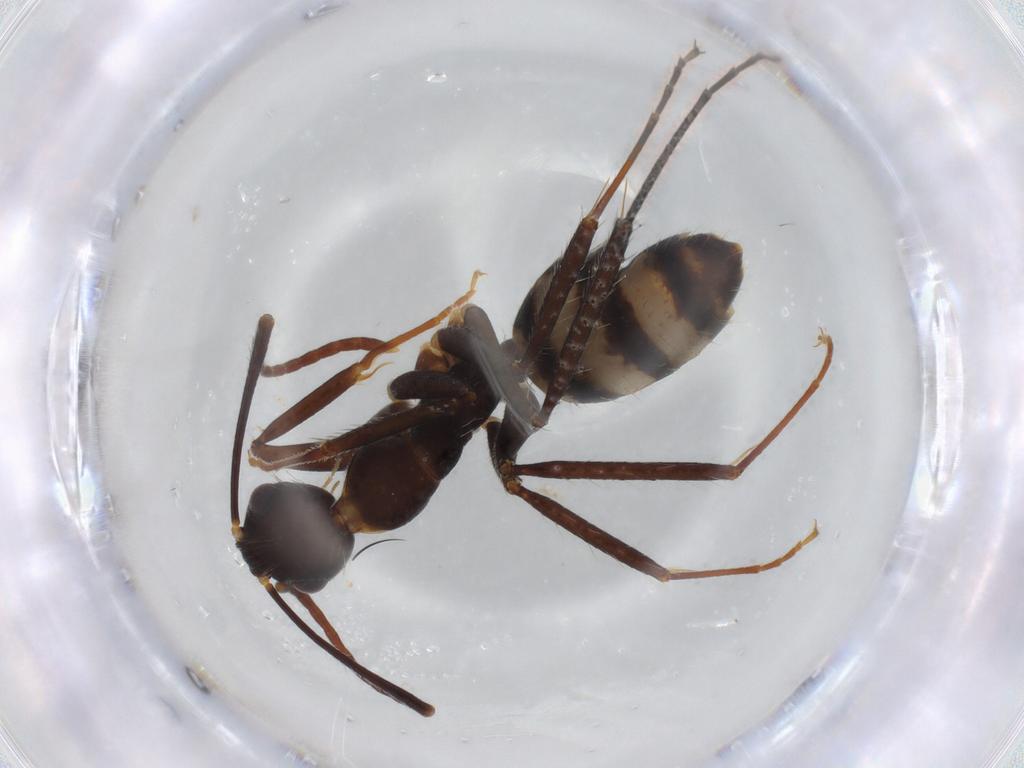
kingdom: Animalia
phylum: Arthropoda
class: Insecta
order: Hymenoptera
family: Formicidae
